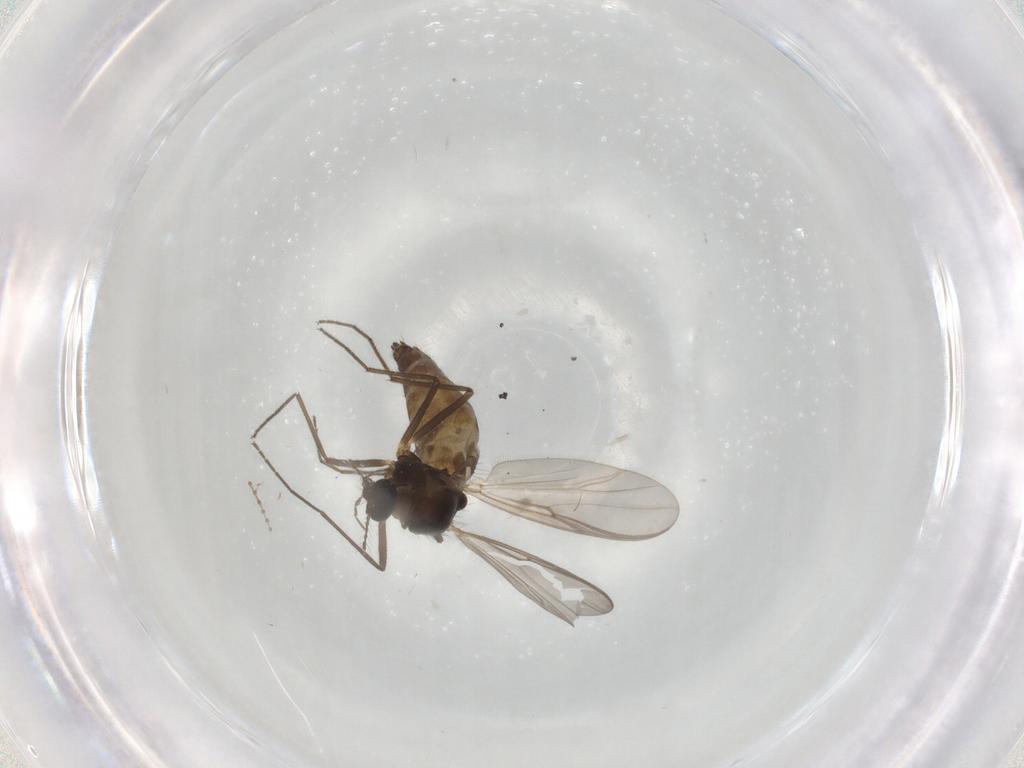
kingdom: Animalia
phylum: Arthropoda
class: Insecta
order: Diptera
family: Chironomidae
